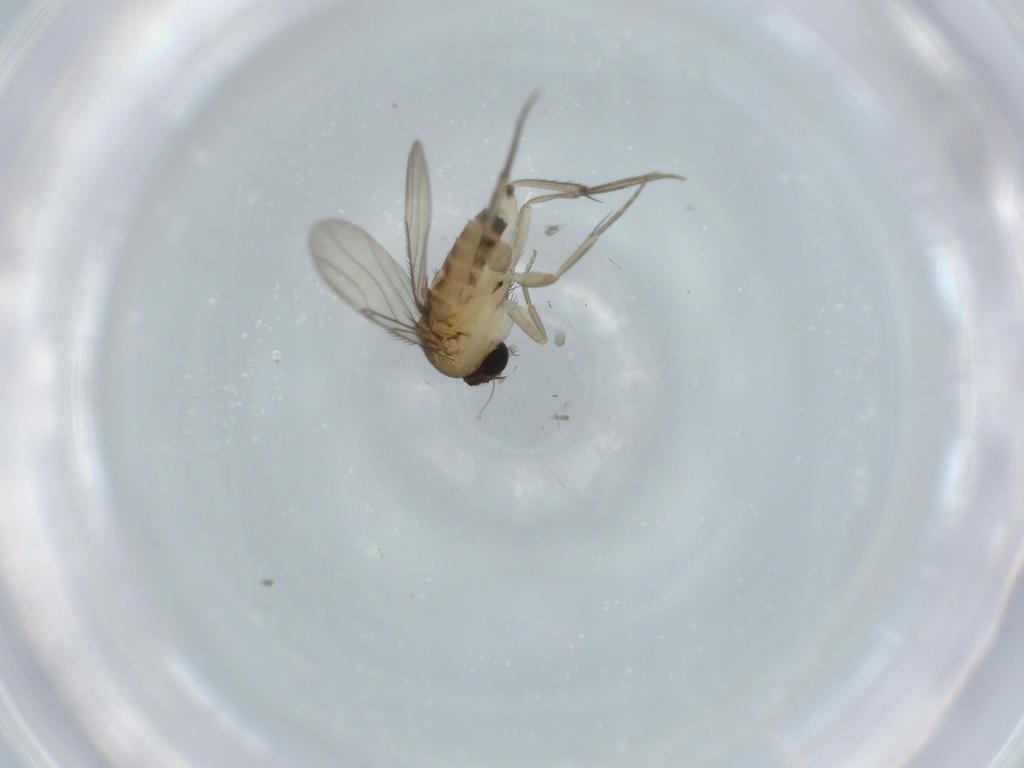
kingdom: Animalia
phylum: Arthropoda
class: Insecta
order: Diptera
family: Phoridae
